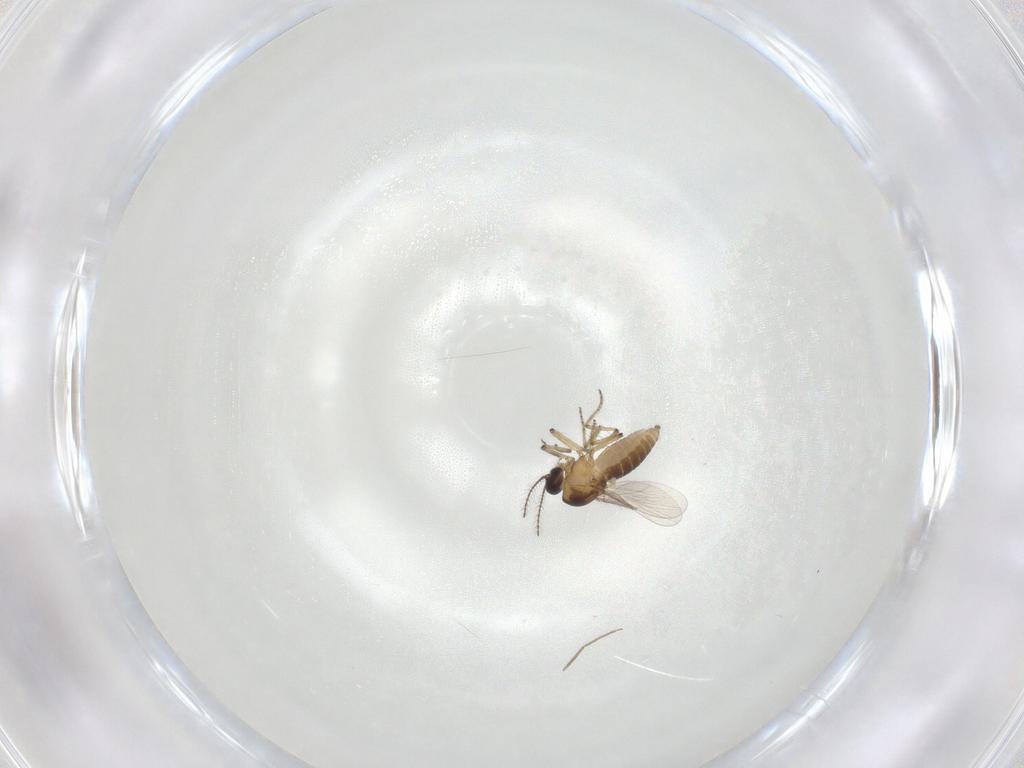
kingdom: Animalia
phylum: Arthropoda
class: Insecta
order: Diptera
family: Ceratopogonidae
